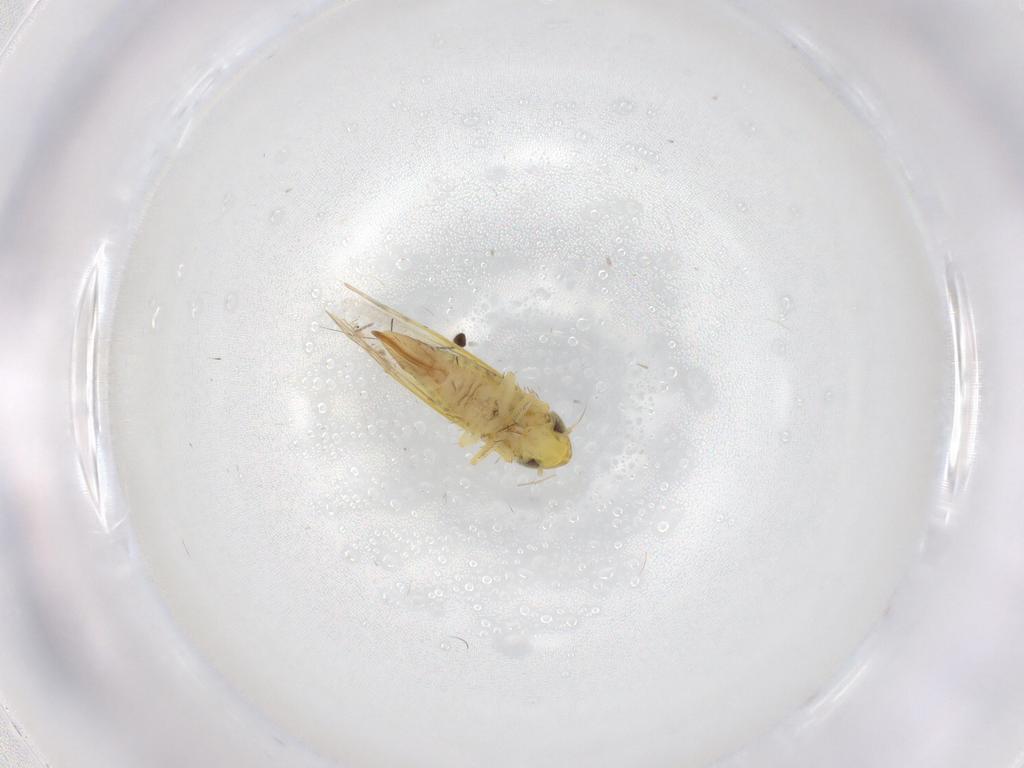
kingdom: Animalia
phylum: Arthropoda
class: Insecta
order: Hemiptera
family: Cicadellidae
